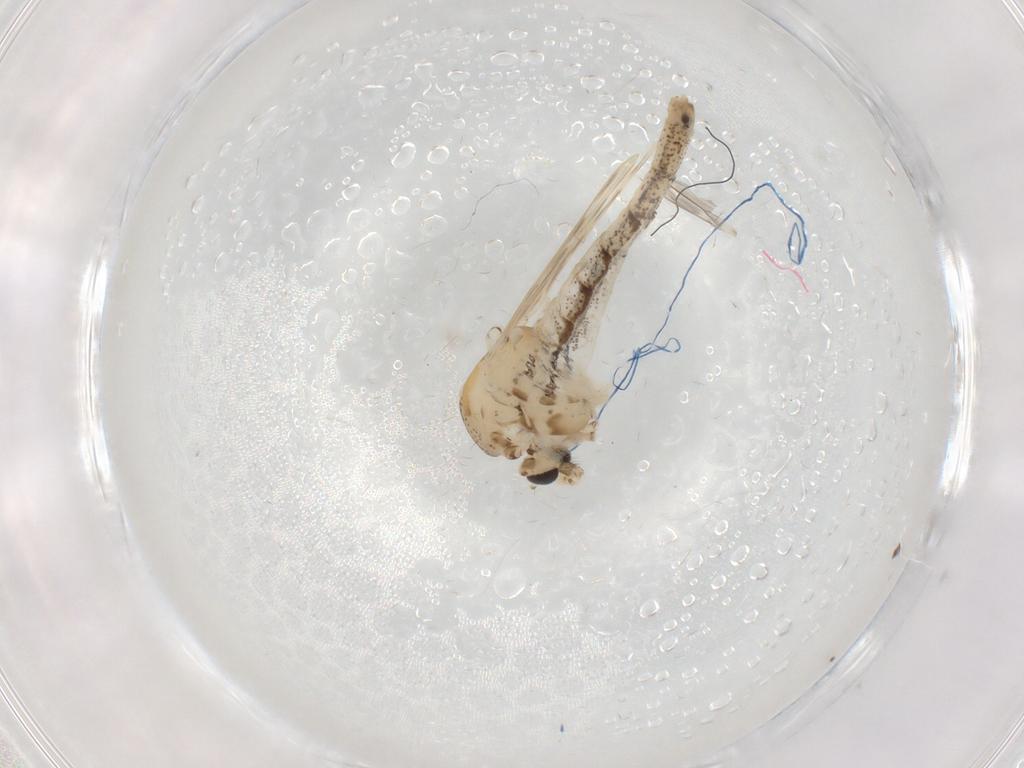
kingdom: Animalia
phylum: Arthropoda
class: Insecta
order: Diptera
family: Chaoboridae
